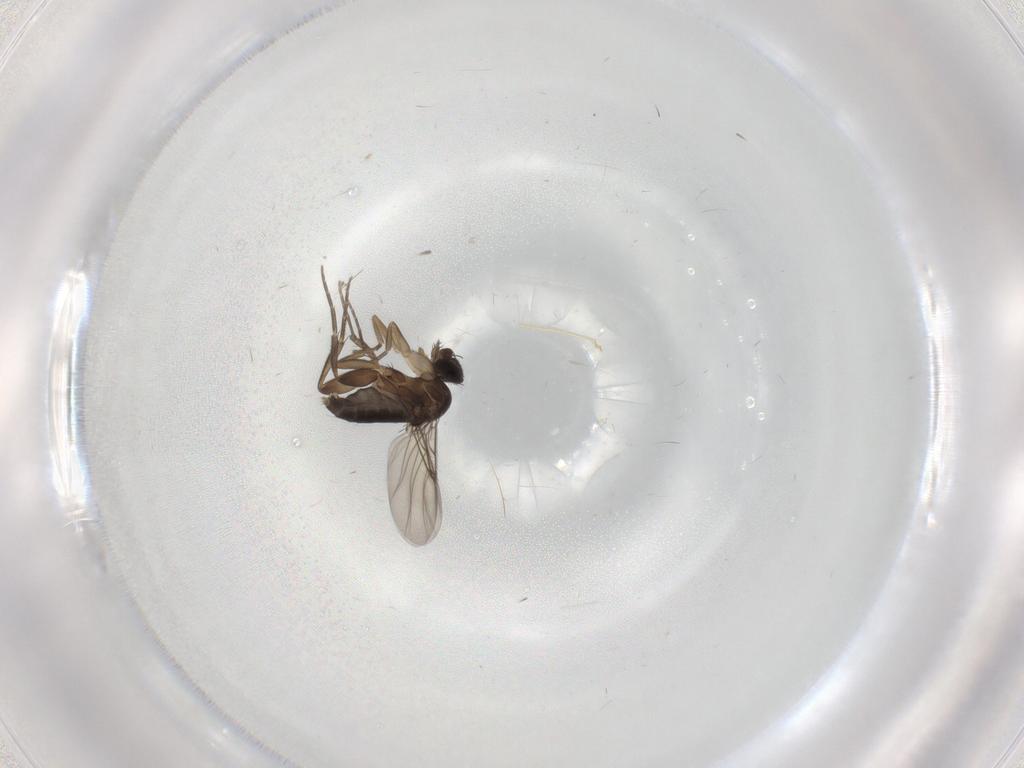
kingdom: Animalia
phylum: Arthropoda
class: Insecta
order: Diptera
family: Phoridae
